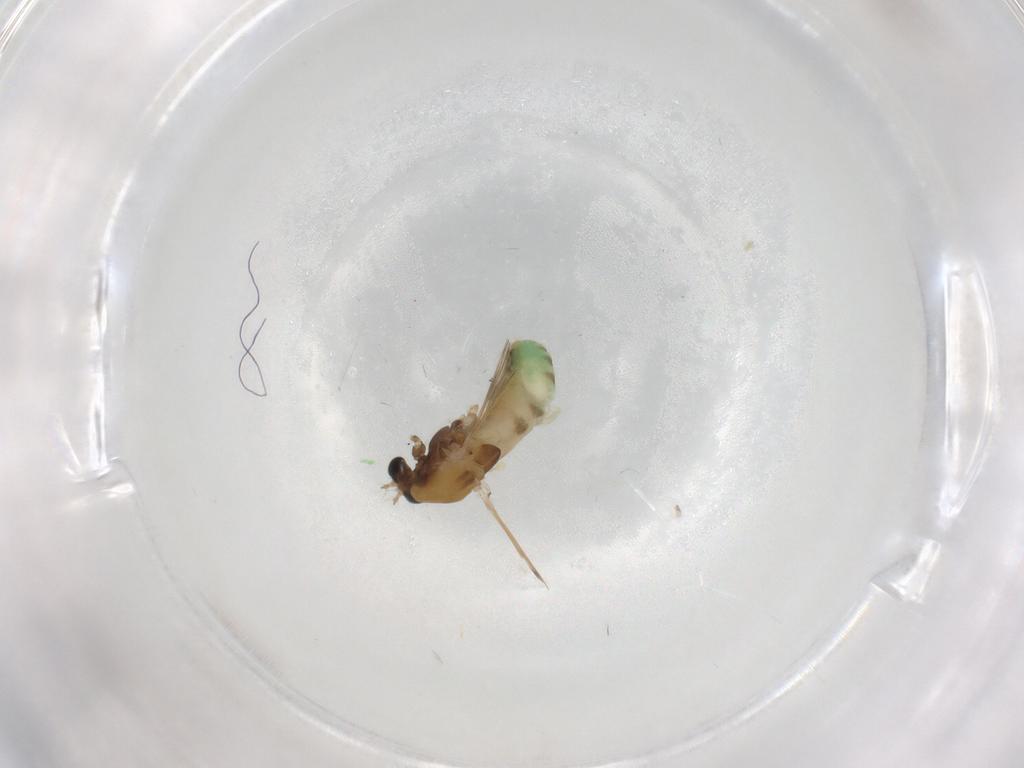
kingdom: Animalia
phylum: Arthropoda
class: Insecta
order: Diptera
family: Chironomidae
